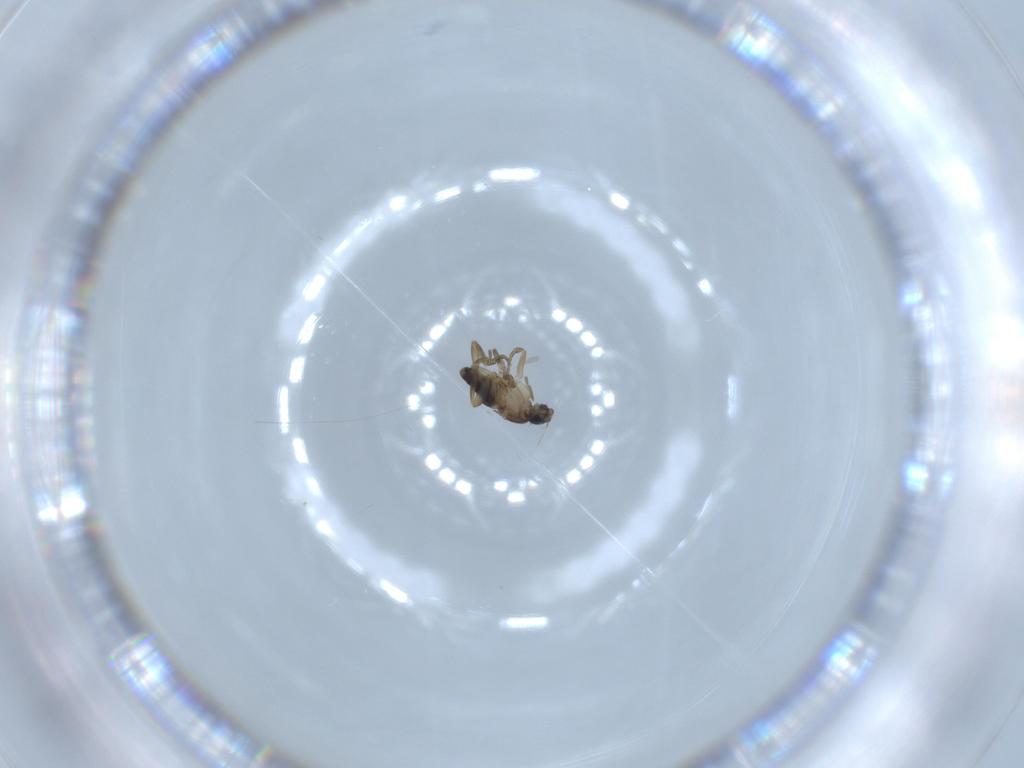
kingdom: Animalia
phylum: Arthropoda
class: Insecta
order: Diptera
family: Phoridae
